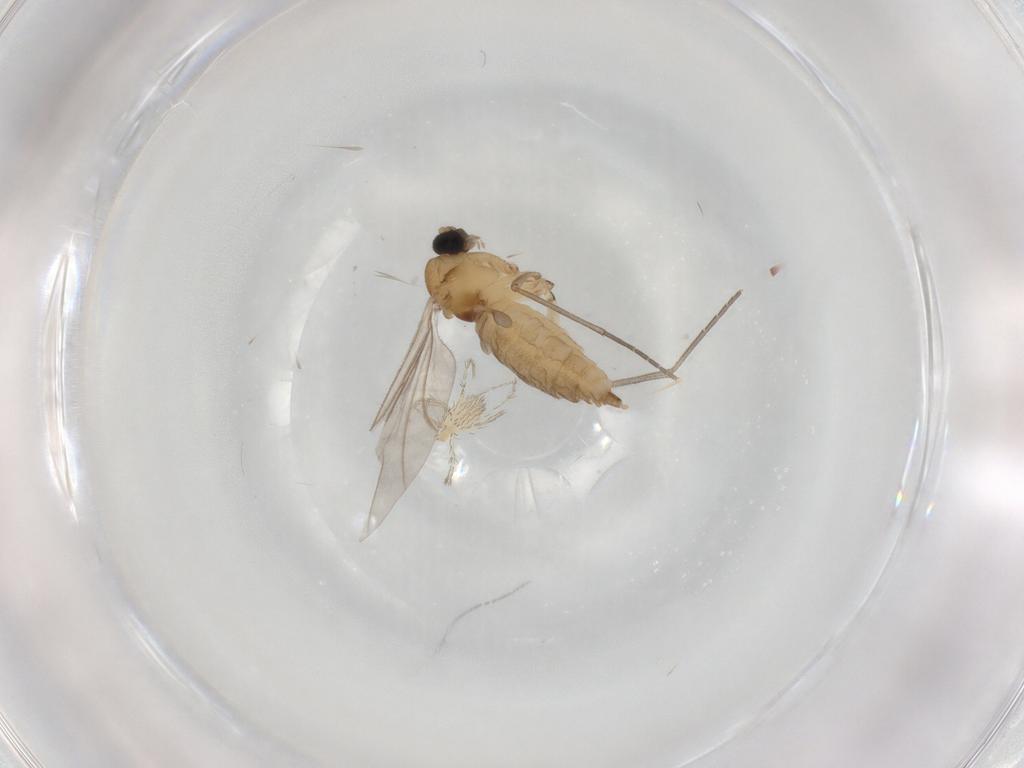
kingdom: Animalia
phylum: Arthropoda
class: Insecta
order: Diptera
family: Sciaridae
